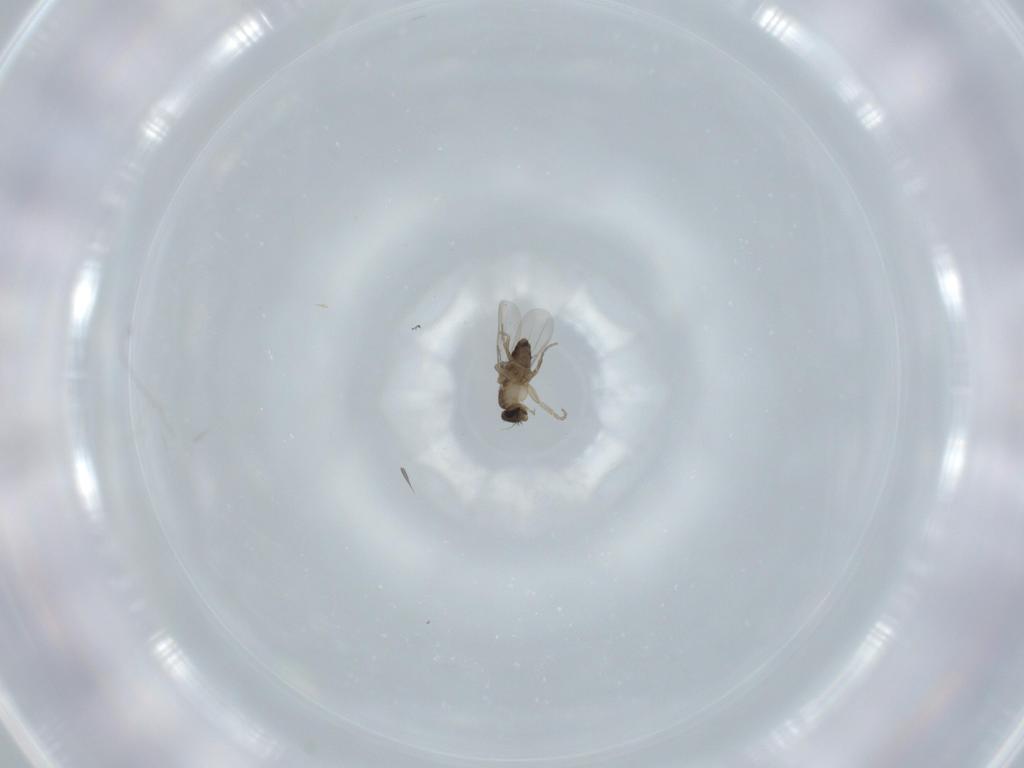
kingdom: Animalia
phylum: Arthropoda
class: Insecta
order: Diptera
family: Phoridae
